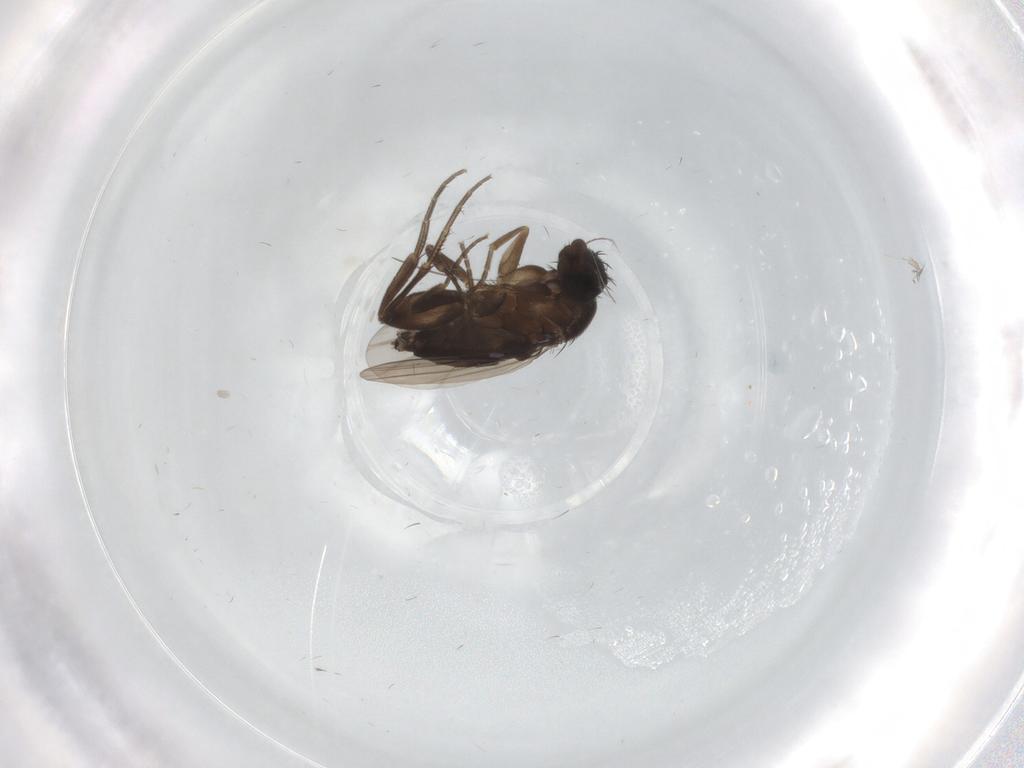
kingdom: Animalia
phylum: Arthropoda
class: Insecta
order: Diptera
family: Phoridae
